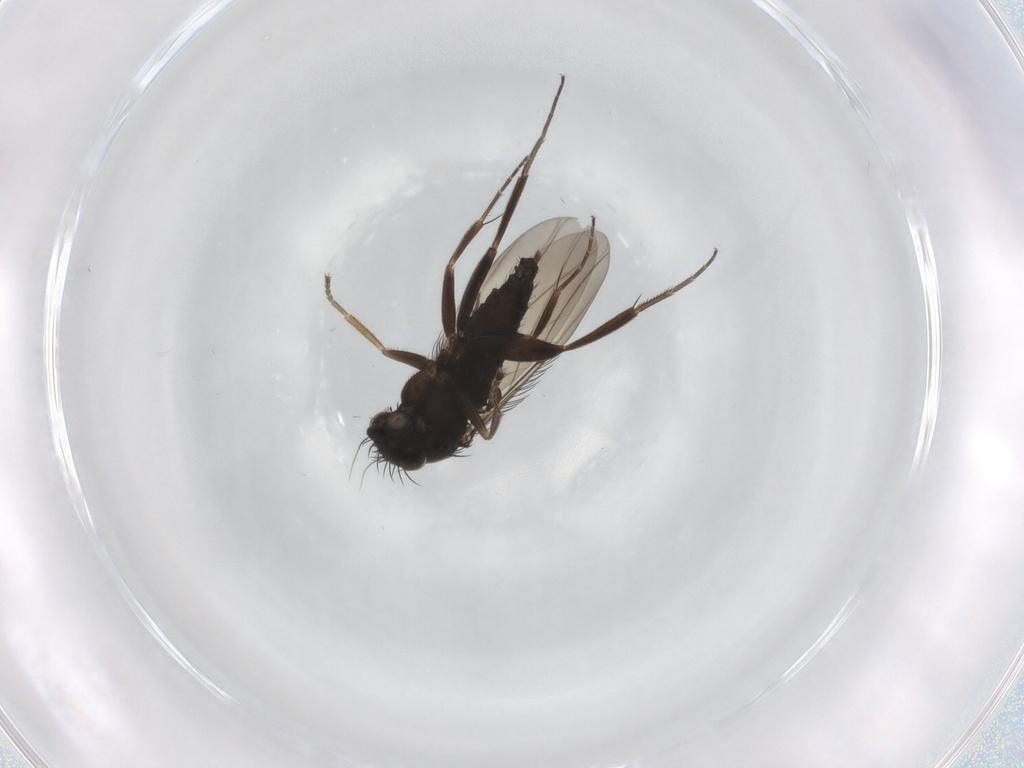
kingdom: Animalia
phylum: Arthropoda
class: Insecta
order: Diptera
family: Phoridae
